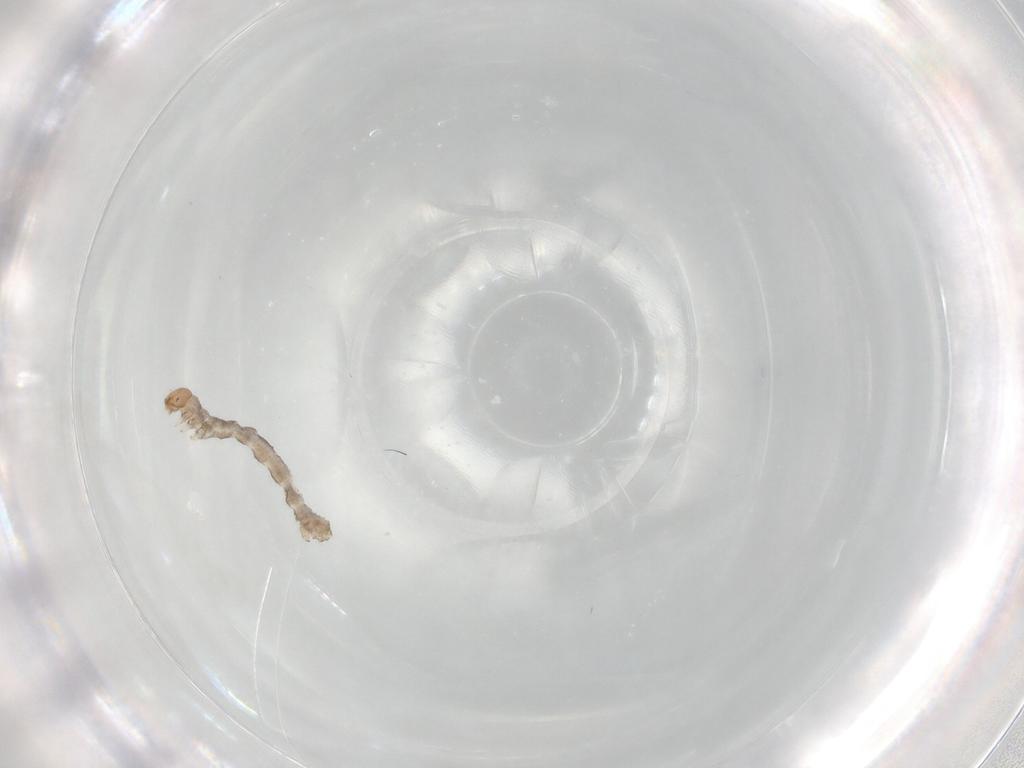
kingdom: Animalia
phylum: Arthropoda
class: Insecta
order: Lepidoptera
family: Geometridae
